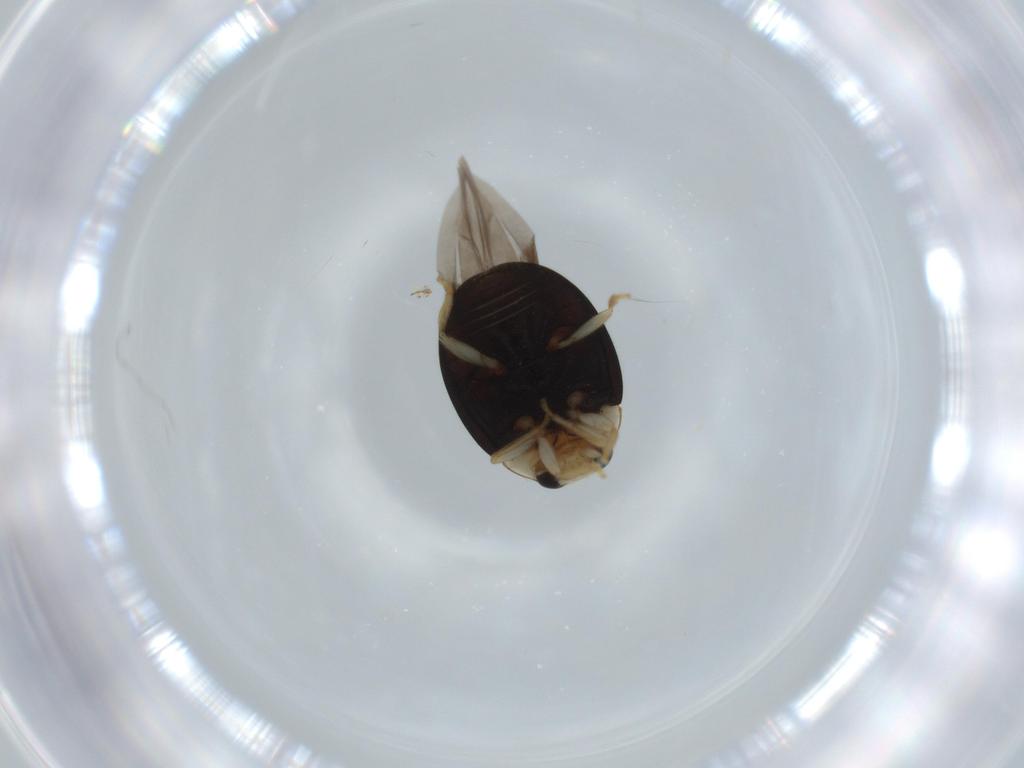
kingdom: Animalia
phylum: Arthropoda
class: Insecta
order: Coleoptera
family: Coccinellidae
